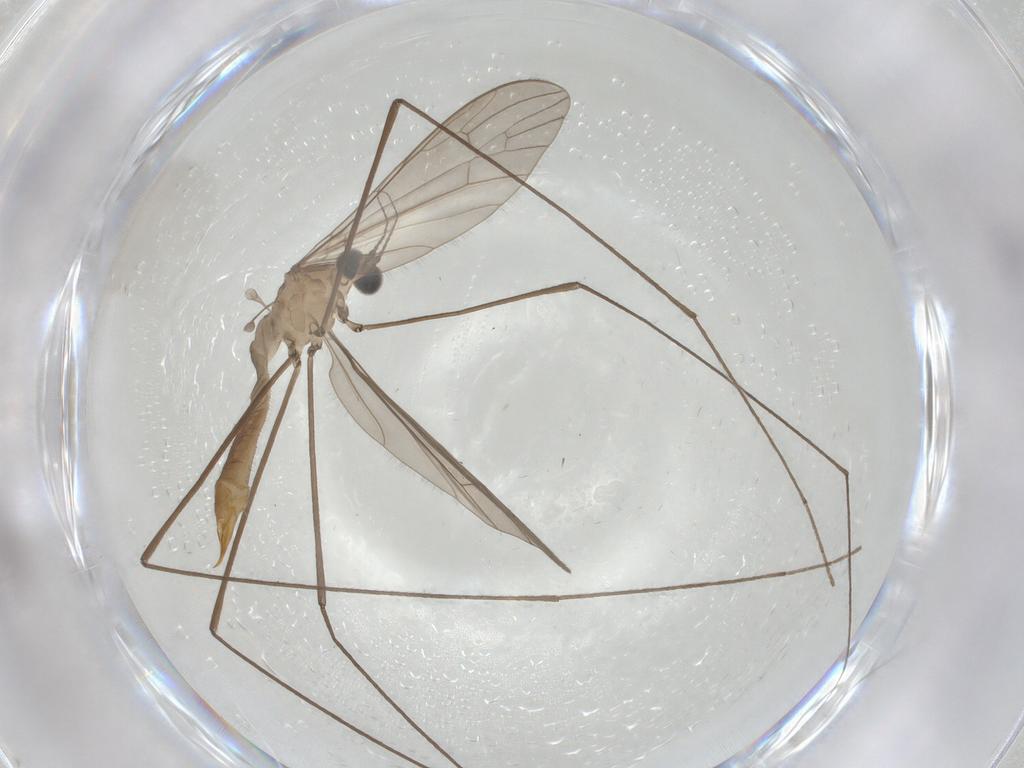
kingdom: Animalia
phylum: Arthropoda
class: Insecta
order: Diptera
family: Limoniidae
